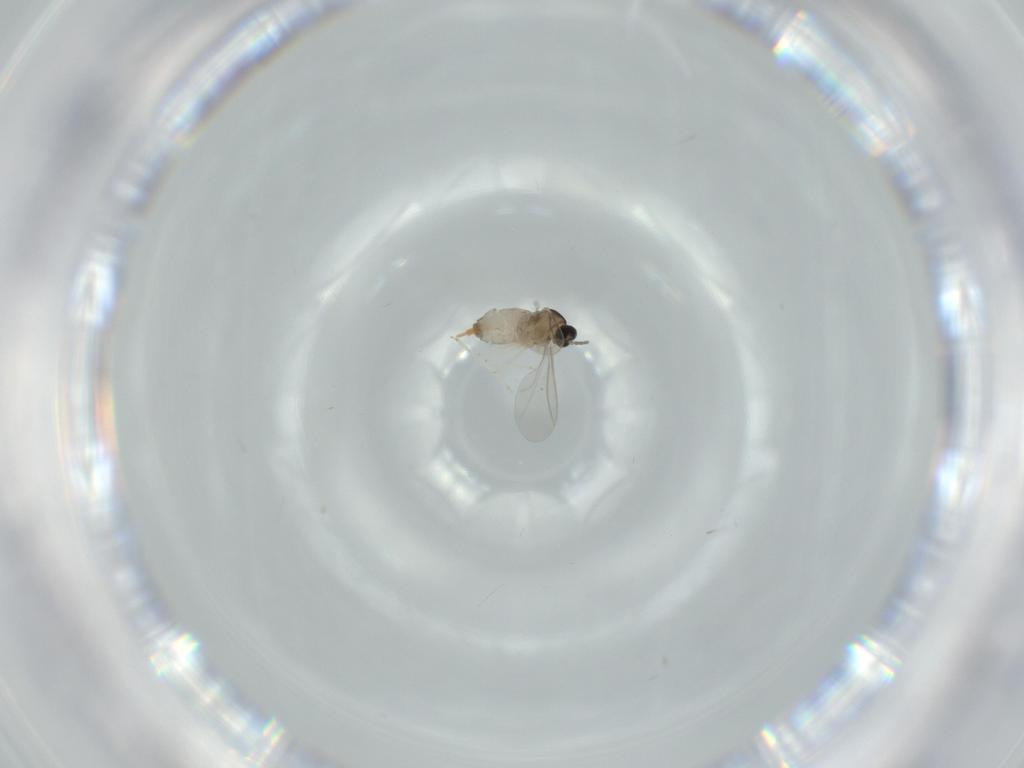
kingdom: Animalia
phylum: Arthropoda
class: Insecta
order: Diptera
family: Cecidomyiidae
